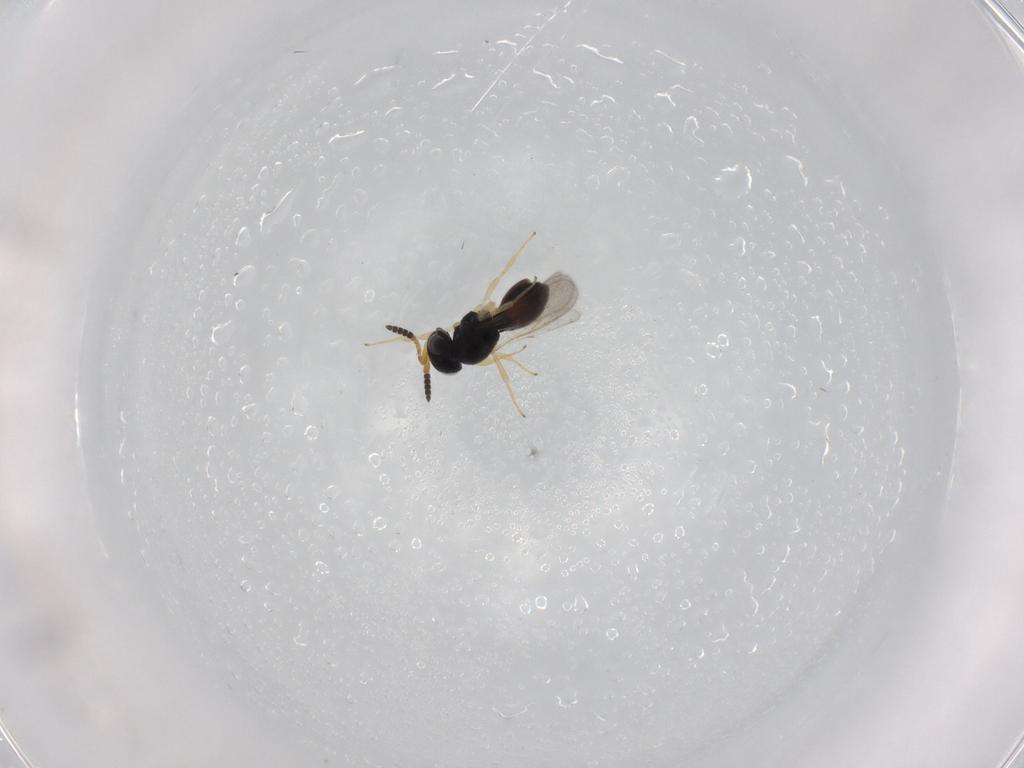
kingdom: Animalia
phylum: Arthropoda
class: Insecta
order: Hymenoptera
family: Scelionidae
